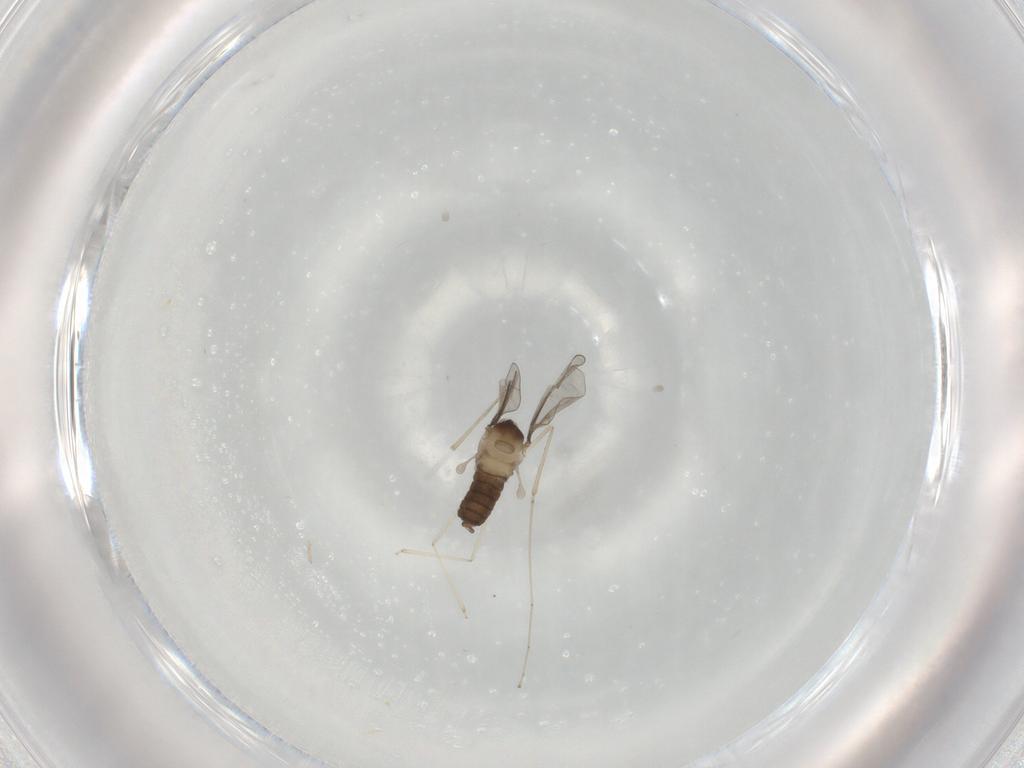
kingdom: Animalia
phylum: Arthropoda
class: Insecta
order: Diptera
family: Cecidomyiidae
